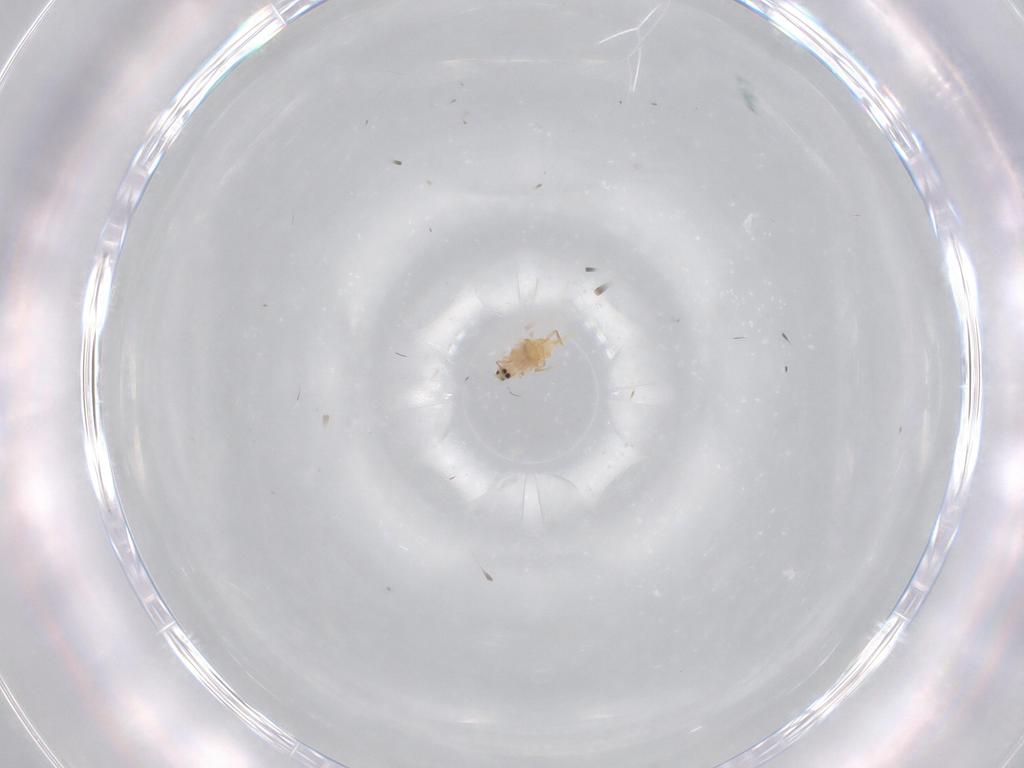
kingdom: Animalia
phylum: Arthropoda
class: Insecta
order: Hemiptera
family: Diaspididae
